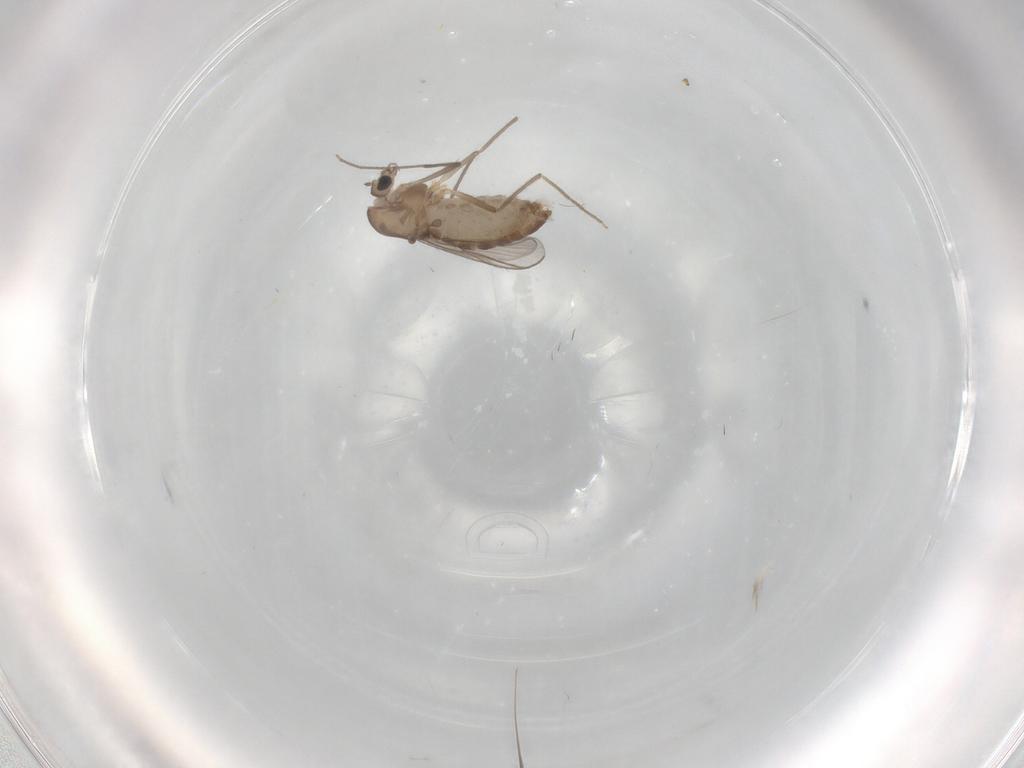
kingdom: Animalia
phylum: Arthropoda
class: Insecta
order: Diptera
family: Chironomidae
